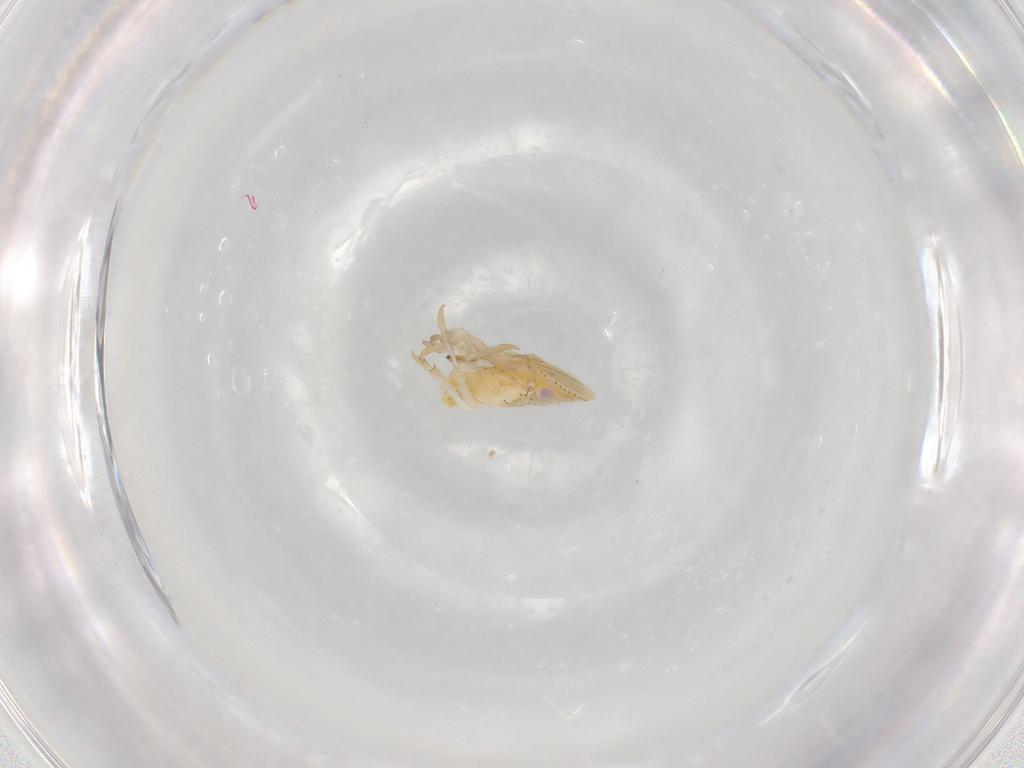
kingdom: Animalia
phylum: Arthropoda
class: Insecta
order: Hemiptera
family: Flatidae
